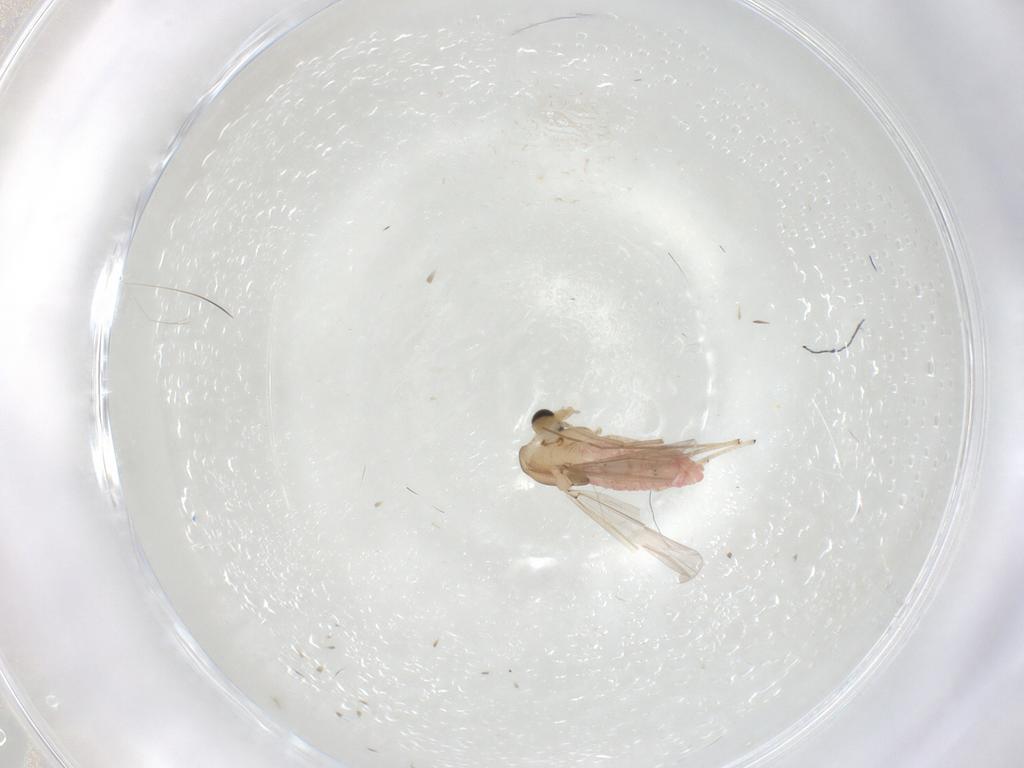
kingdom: Animalia
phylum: Arthropoda
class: Insecta
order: Diptera
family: Chironomidae
